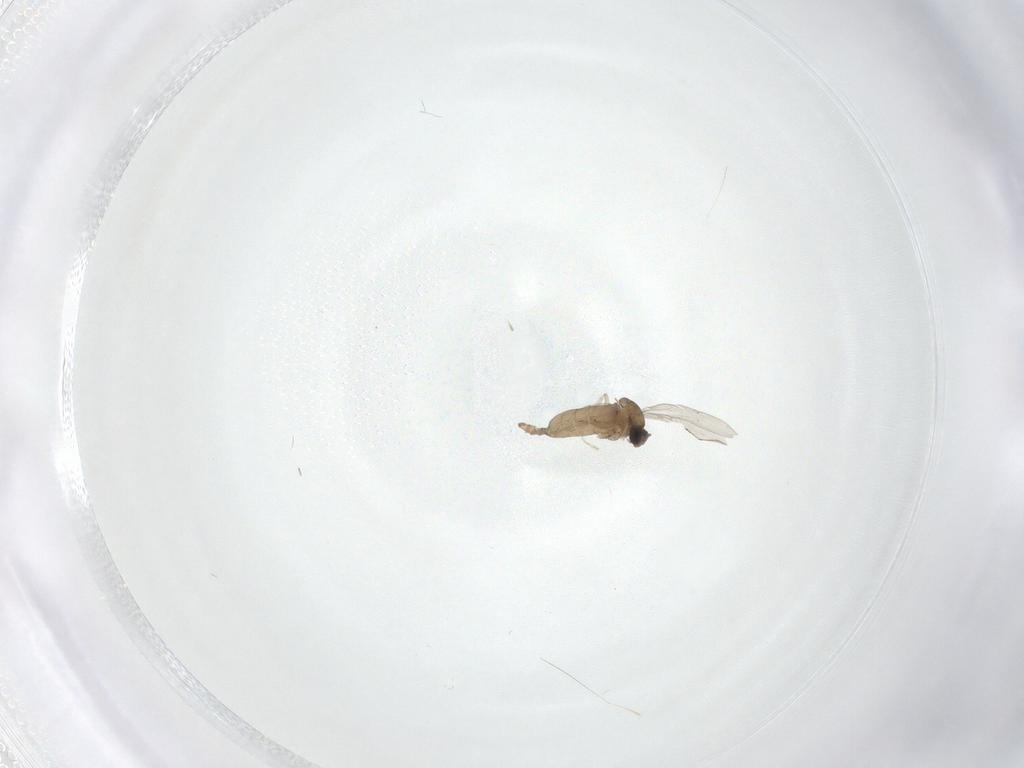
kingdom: Animalia
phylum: Arthropoda
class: Insecta
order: Diptera
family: Cecidomyiidae
